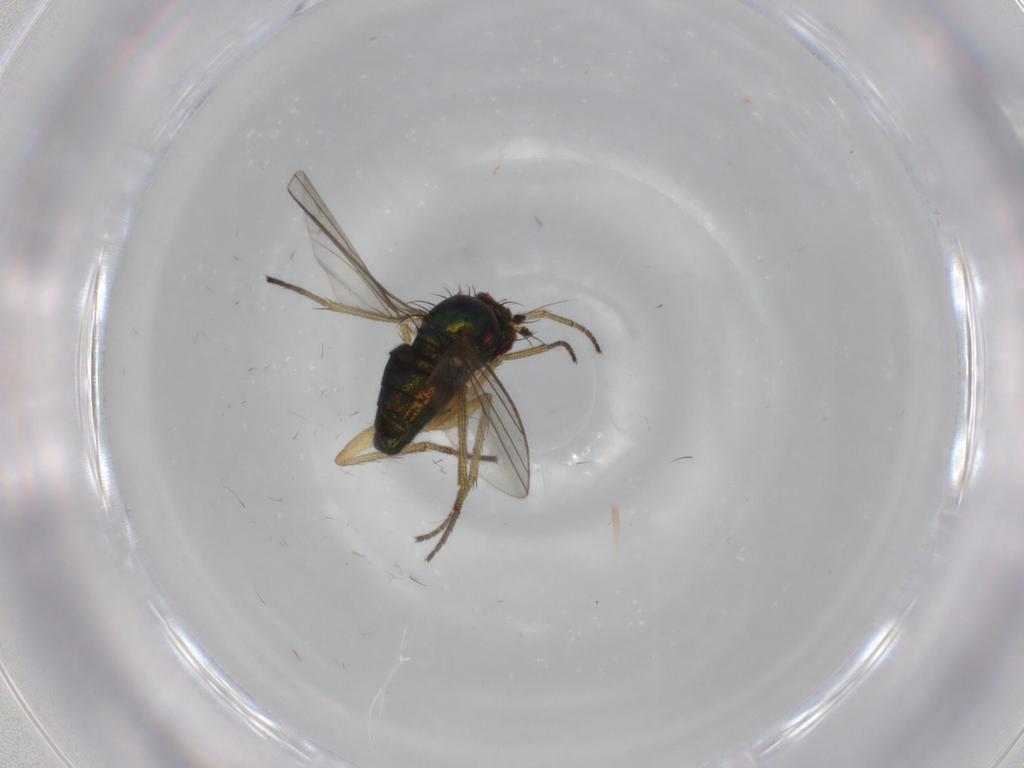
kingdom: Animalia
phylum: Arthropoda
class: Insecta
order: Diptera
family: Dolichopodidae
